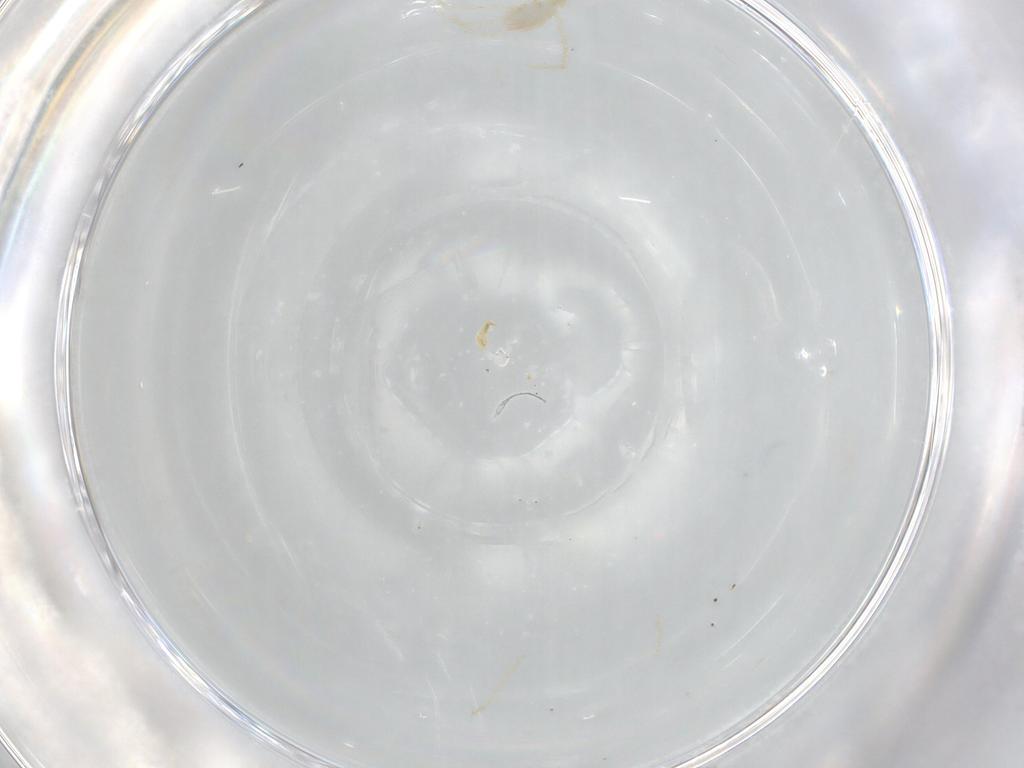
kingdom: Animalia
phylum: Arthropoda
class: Arachnida
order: Trombidiformes
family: Erythraeidae
